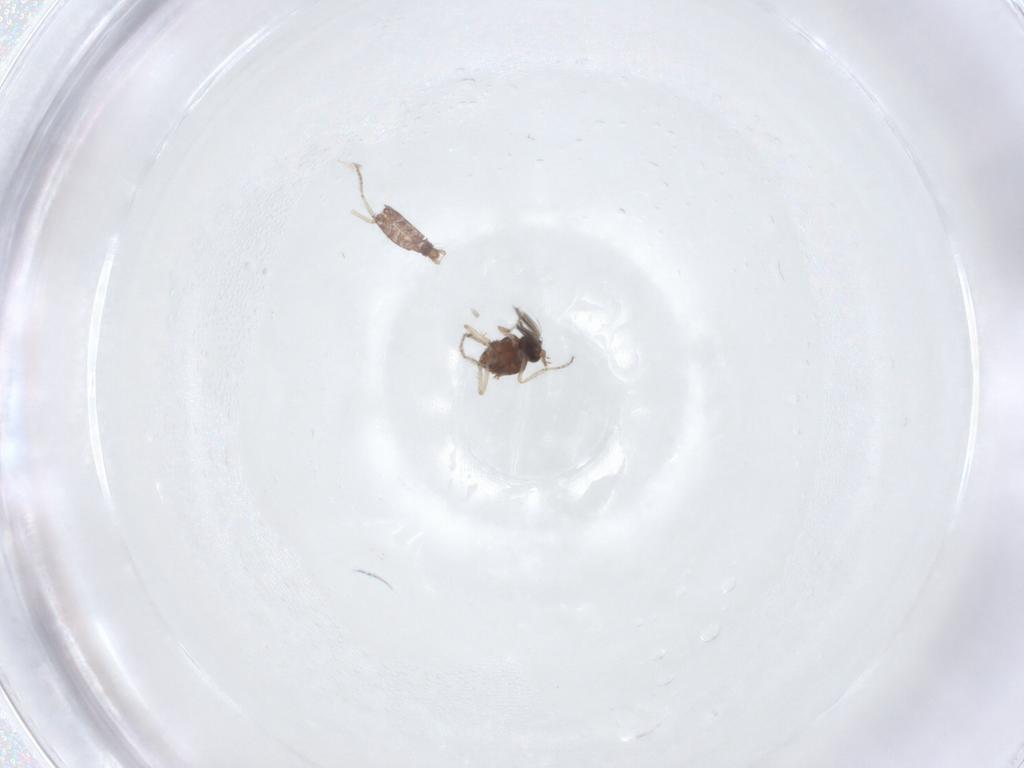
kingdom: Animalia
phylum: Arthropoda
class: Insecta
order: Diptera
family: Ceratopogonidae
